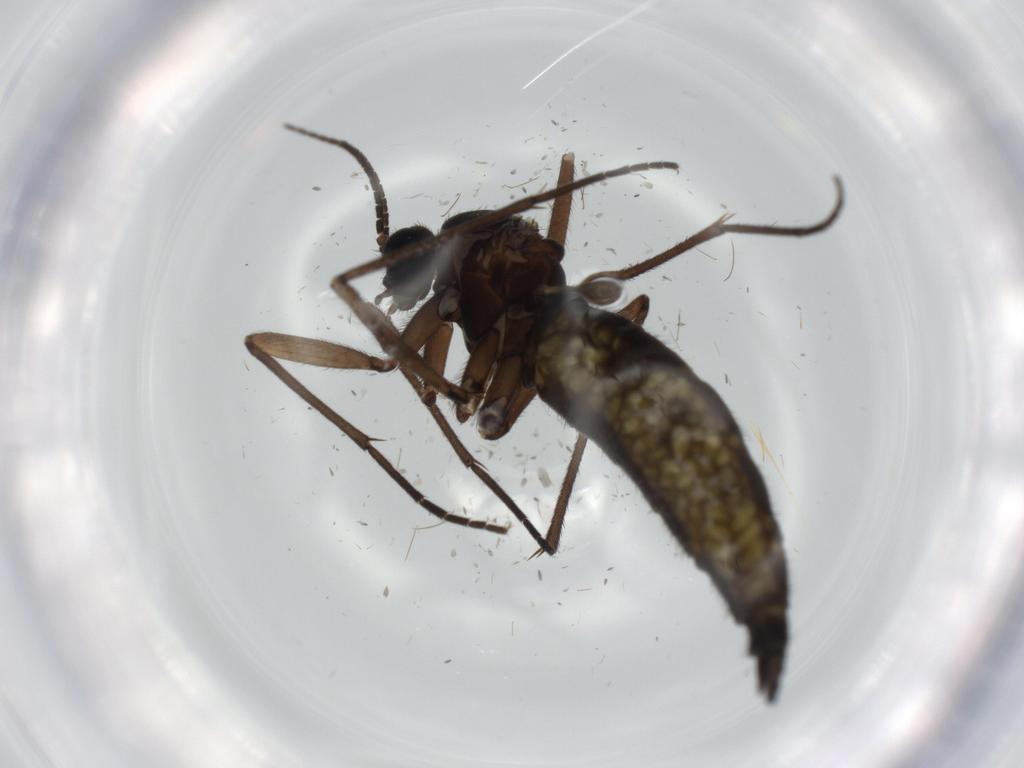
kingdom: Animalia
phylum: Arthropoda
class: Insecta
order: Diptera
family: Sciaridae
